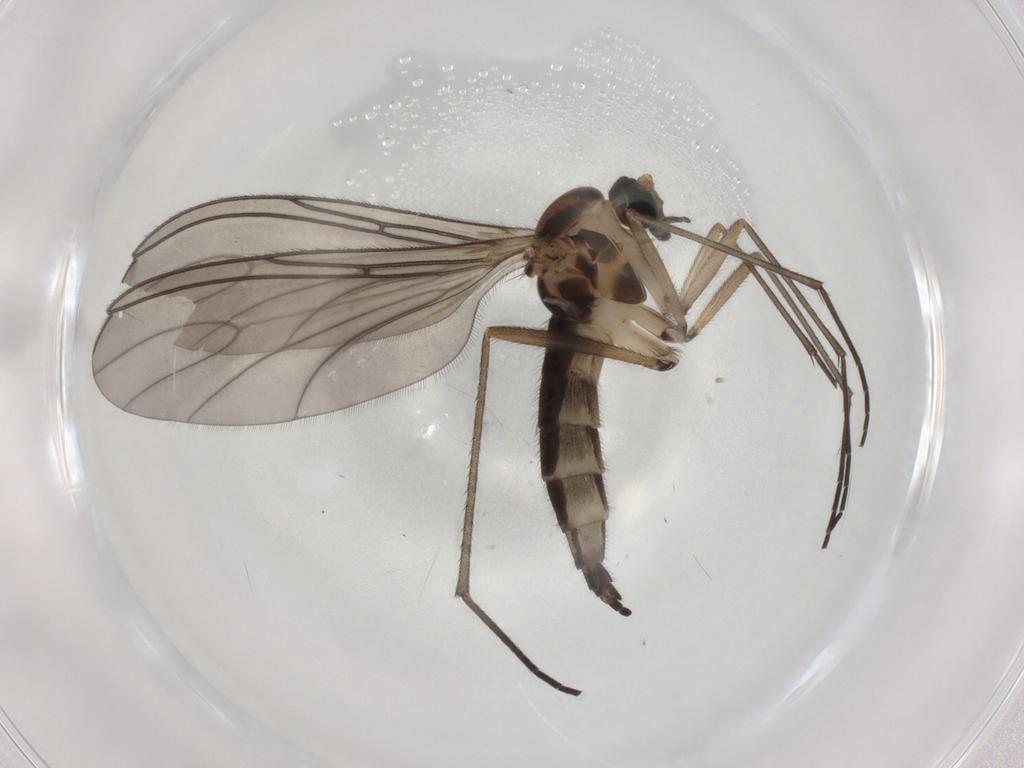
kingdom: Animalia
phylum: Arthropoda
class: Insecta
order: Diptera
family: Sciaridae
